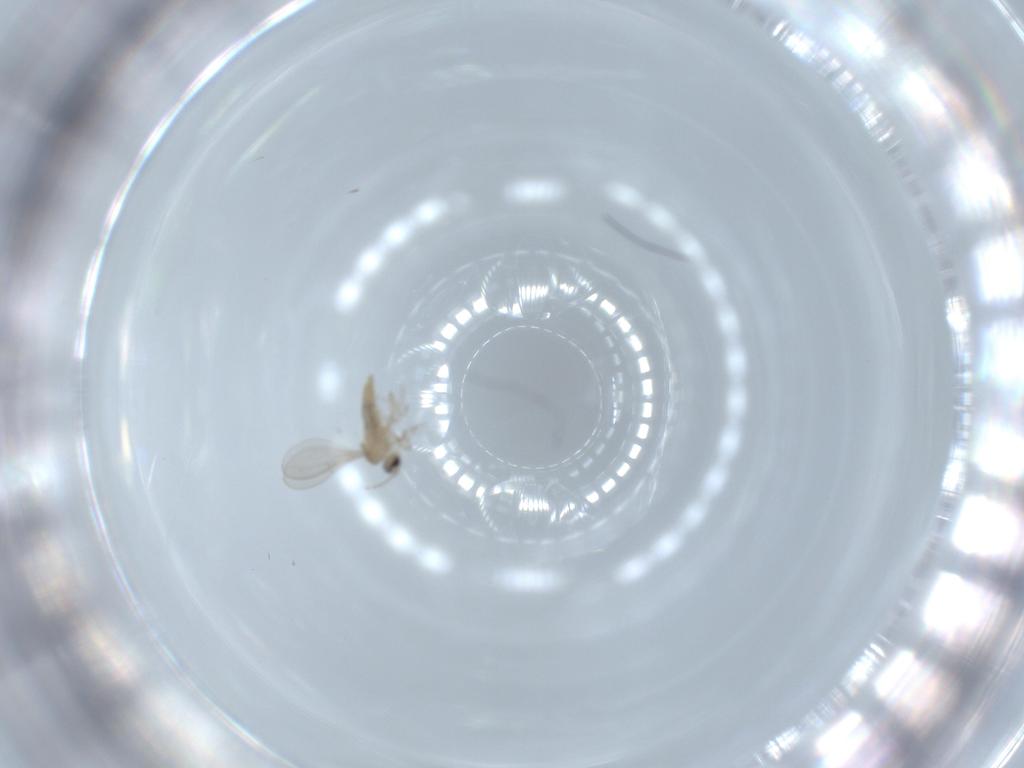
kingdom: Animalia
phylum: Arthropoda
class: Insecta
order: Diptera
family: Cecidomyiidae
